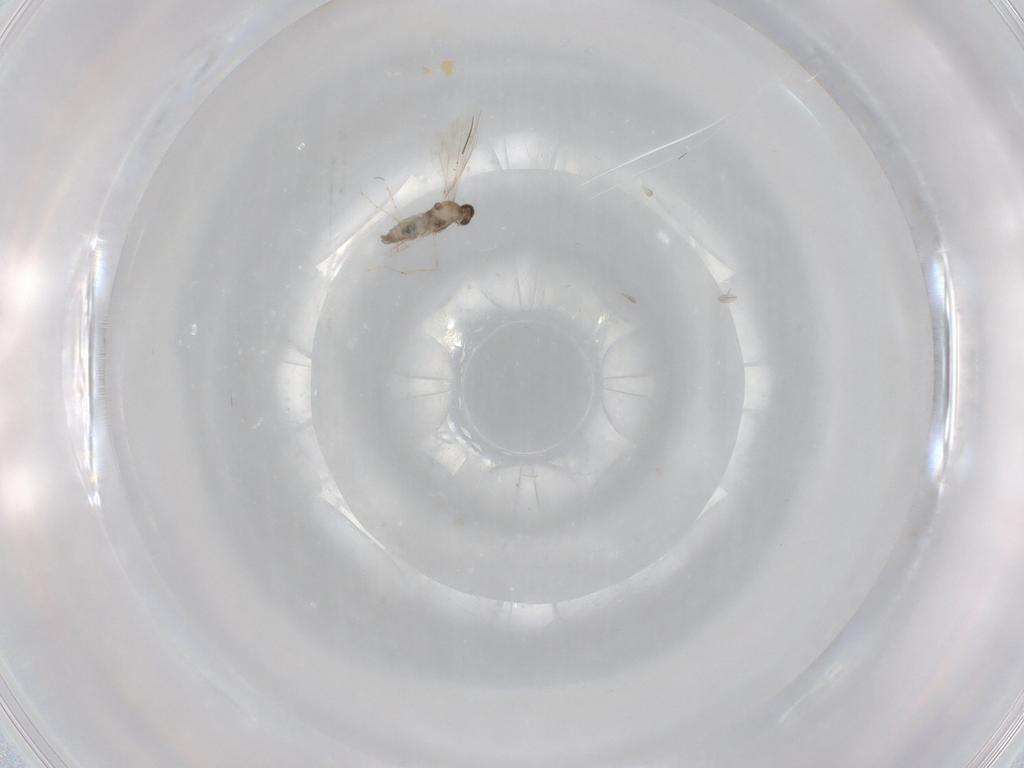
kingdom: Animalia
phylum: Arthropoda
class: Insecta
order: Diptera
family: Cecidomyiidae
